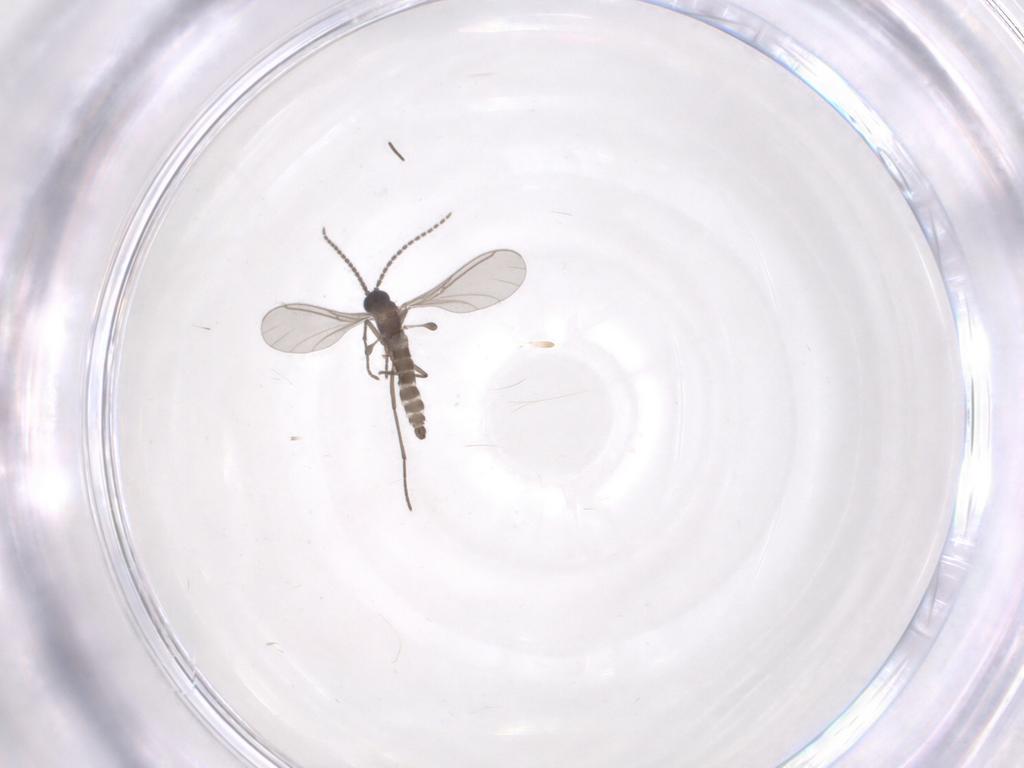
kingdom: Animalia
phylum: Arthropoda
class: Insecta
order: Diptera
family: Sciaridae
